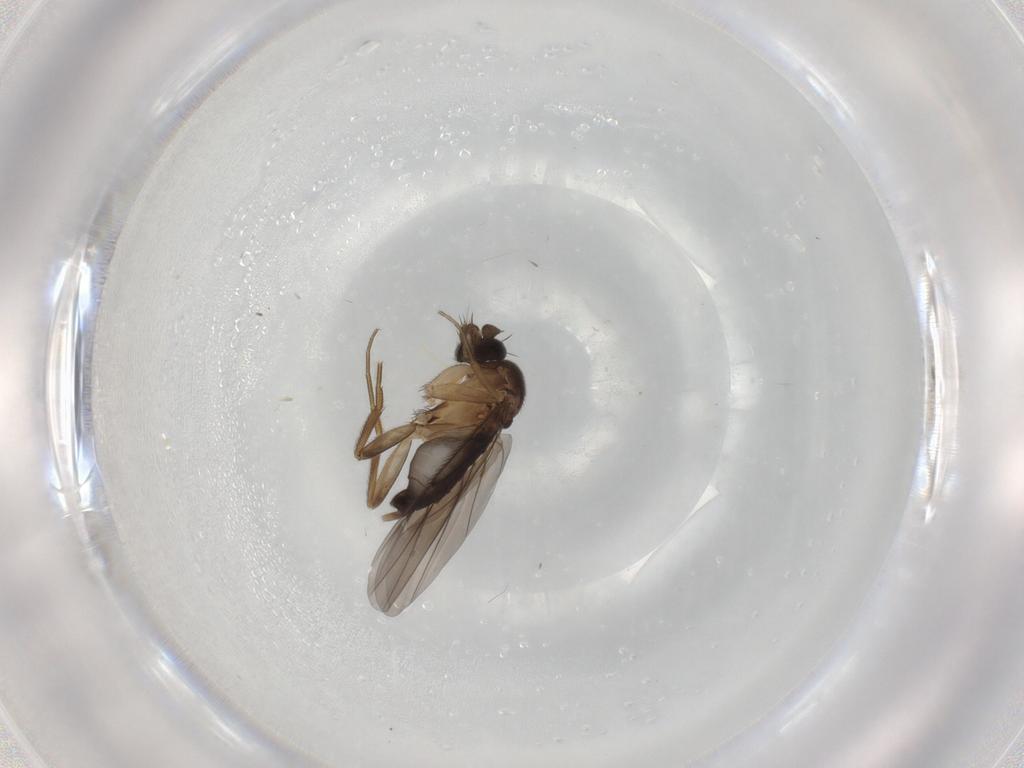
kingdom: Animalia
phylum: Arthropoda
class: Insecta
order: Diptera
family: Phoridae
